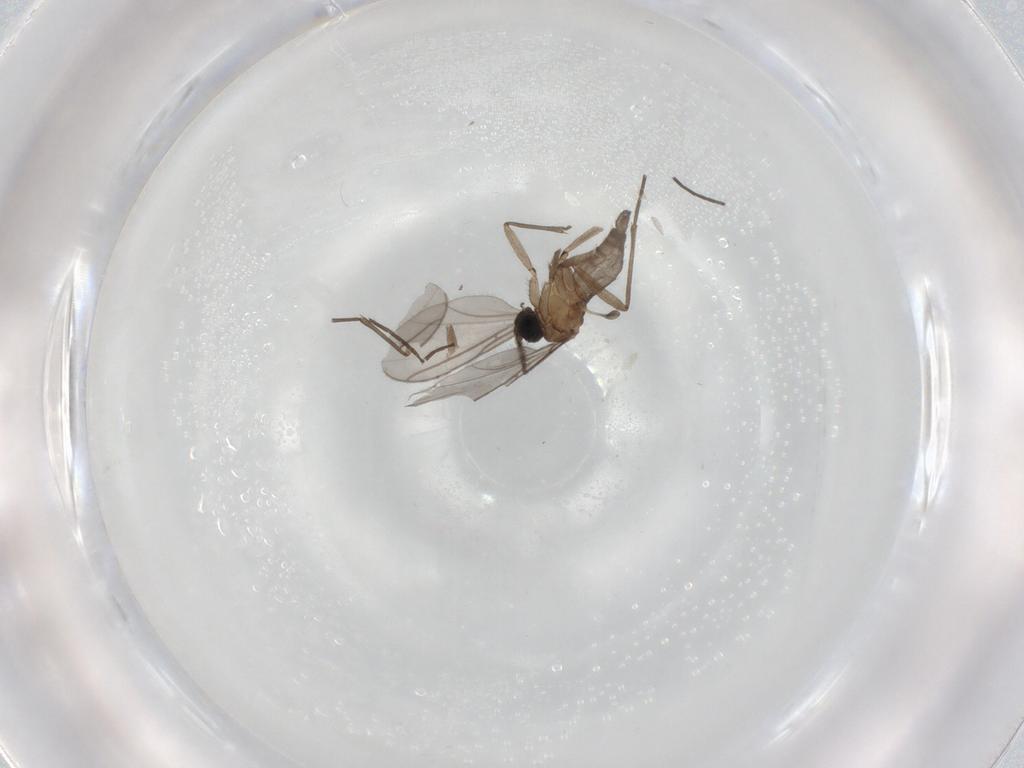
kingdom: Animalia
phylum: Arthropoda
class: Insecta
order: Diptera
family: Sciaridae
